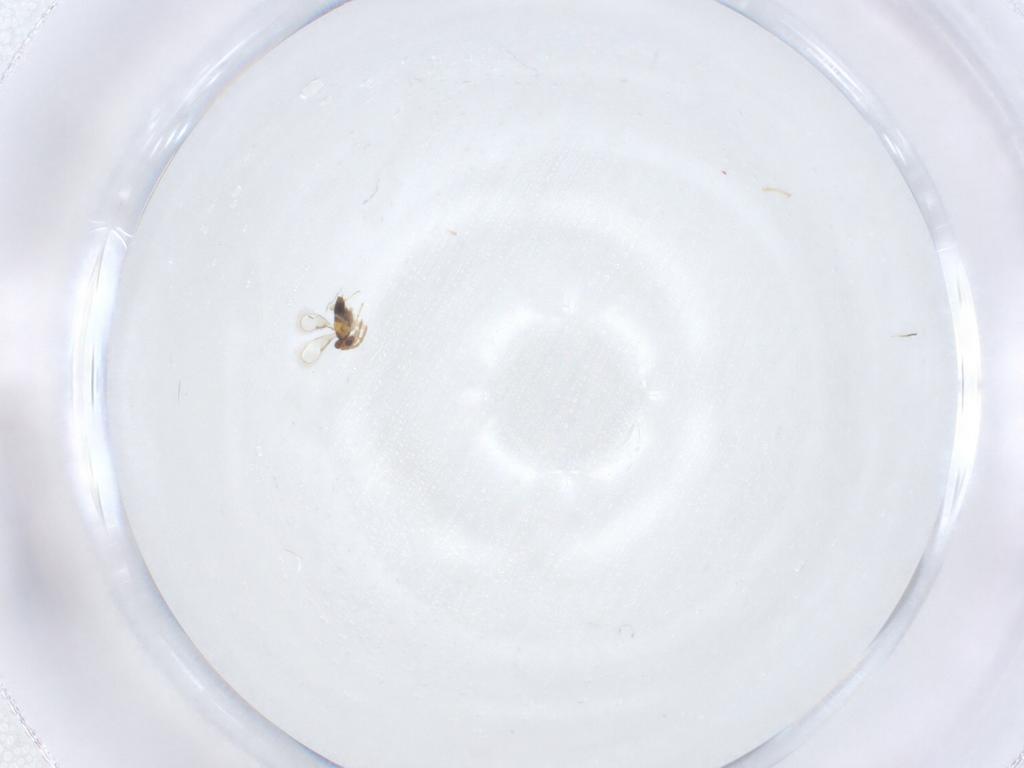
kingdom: Animalia
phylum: Arthropoda
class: Insecta
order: Hymenoptera
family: Aphelinidae
